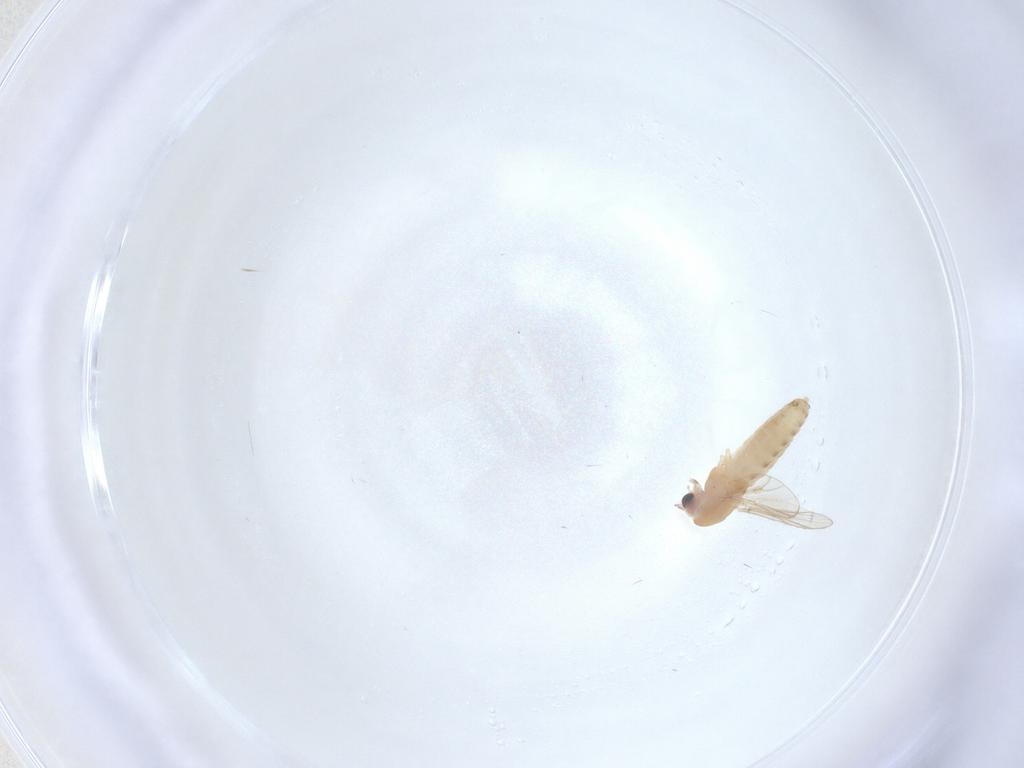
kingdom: Animalia
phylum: Arthropoda
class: Insecta
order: Diptera
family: Chironomidae
